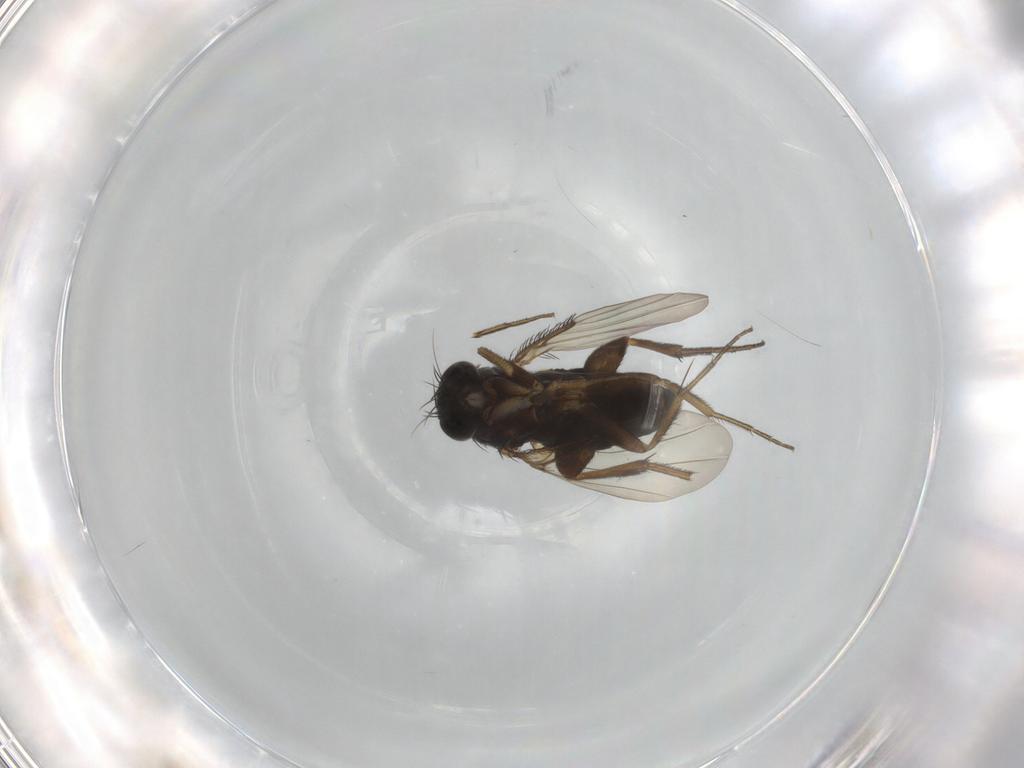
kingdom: Animalia
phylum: Arthropoda
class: Insecta
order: Diptera
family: Phoridae
